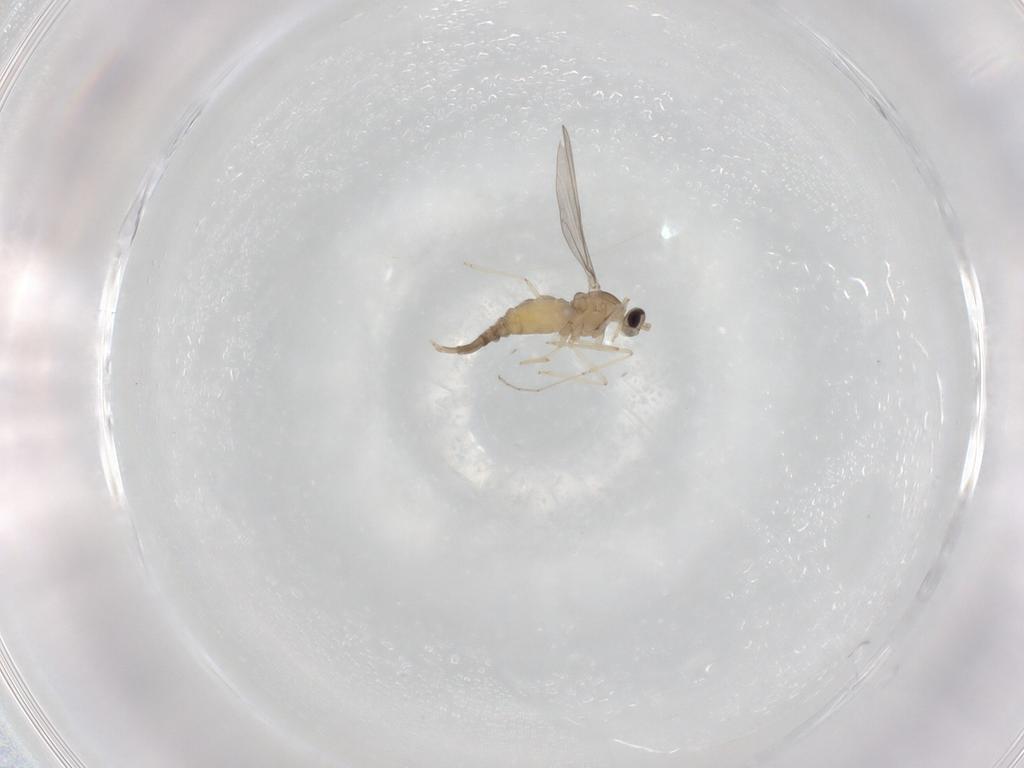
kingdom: Animalia
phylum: Arthropoda
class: Insecta
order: Diptera
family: Cecidomyiidae
